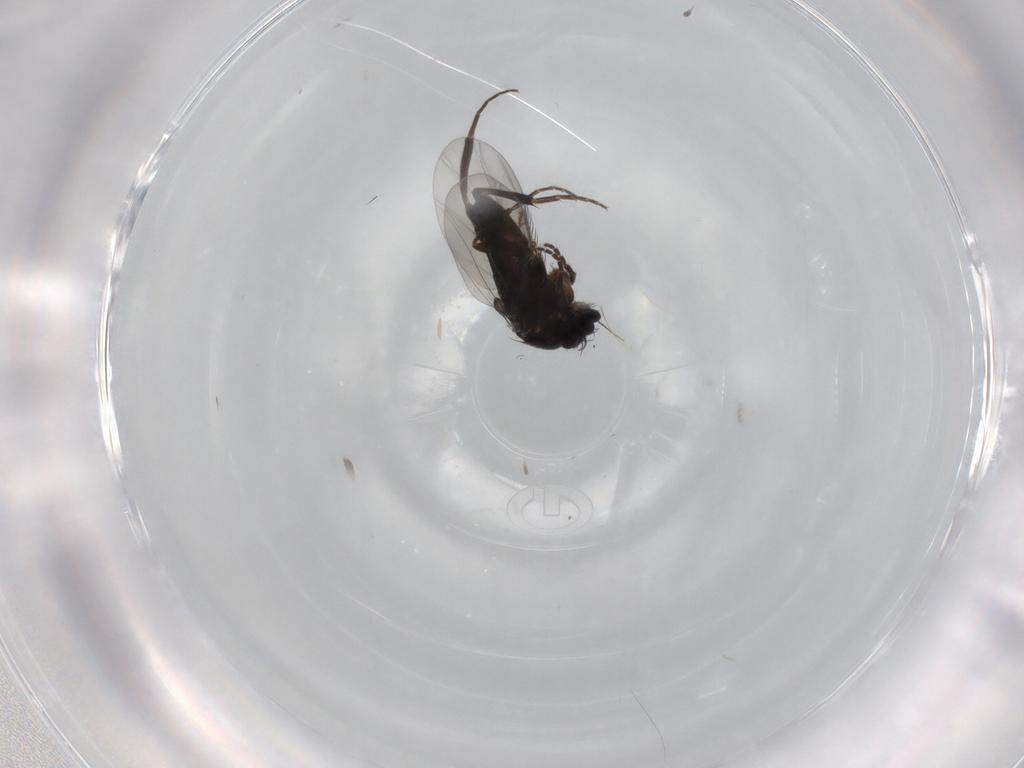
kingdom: Animalia
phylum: Arthropoda
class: Insecta
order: Diptera
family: Phoridae
